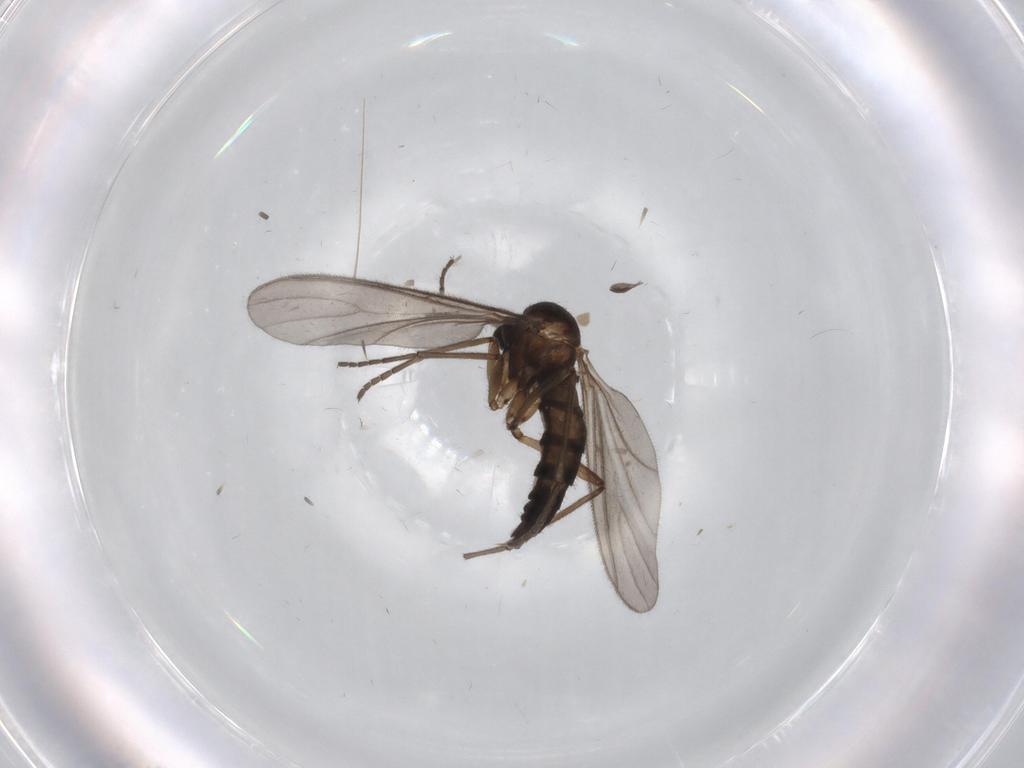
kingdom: Animalia
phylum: Arthropoda
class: Insecta
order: Diptera
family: Sciaridae
